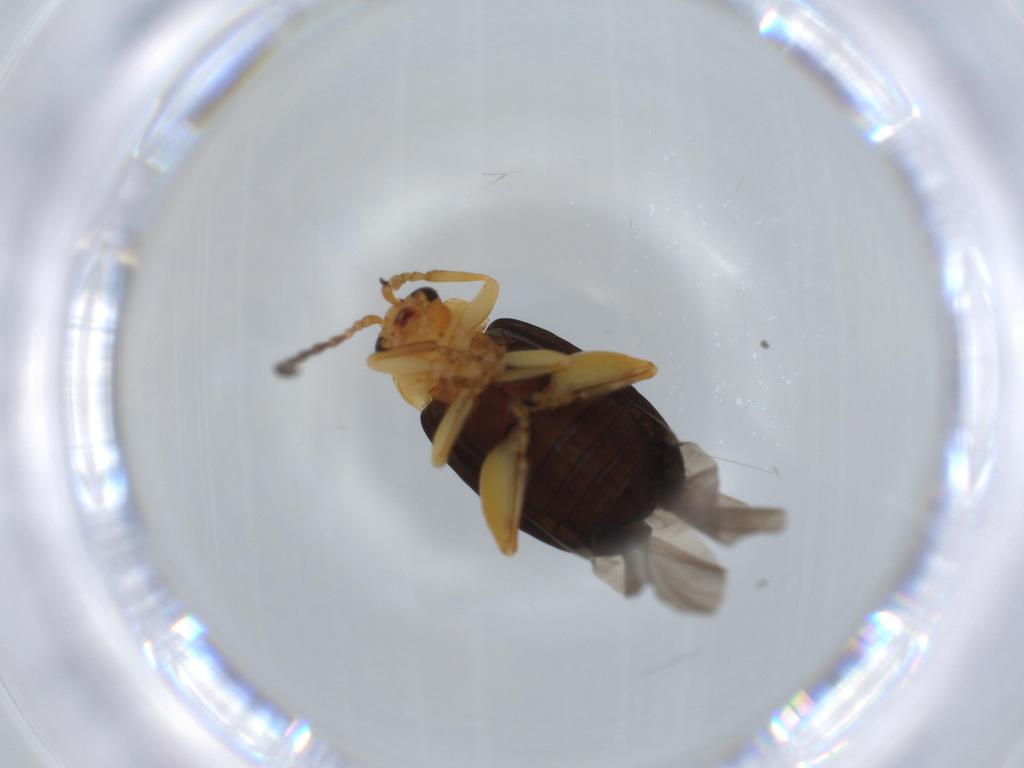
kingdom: Animalia
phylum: Arthropoda
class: Insecta
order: Coleoptera
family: Chrysomelidae
